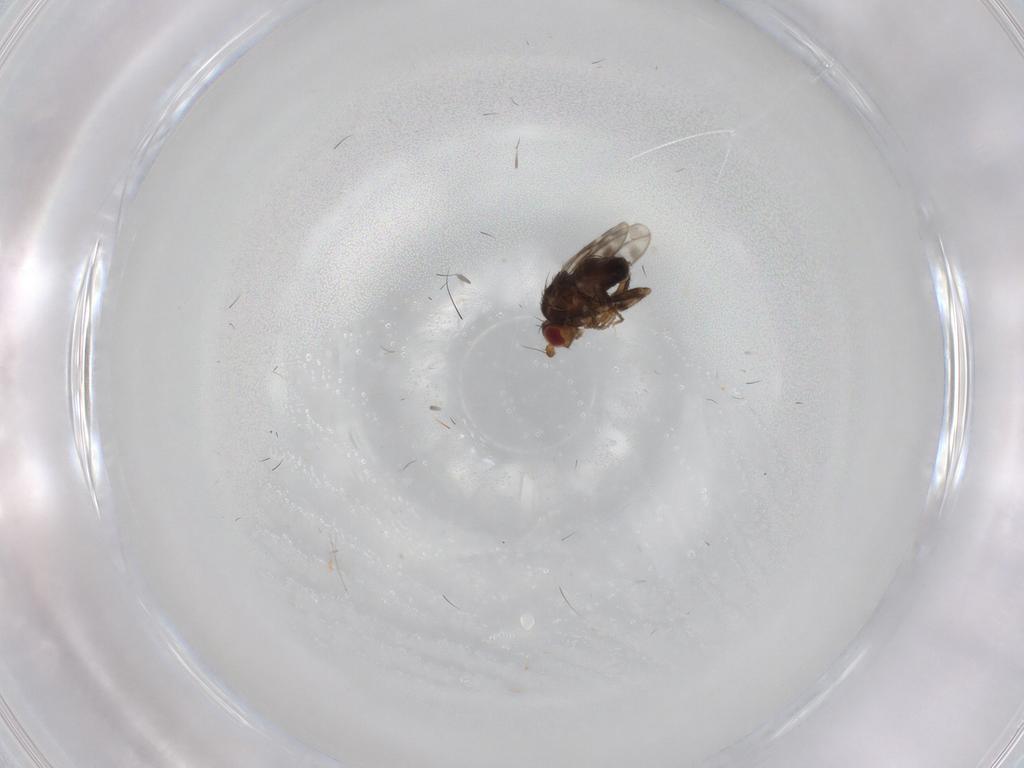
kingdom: Animalia
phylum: Arthropoda
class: Insecta
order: Diptera
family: Sphaeroceridae
